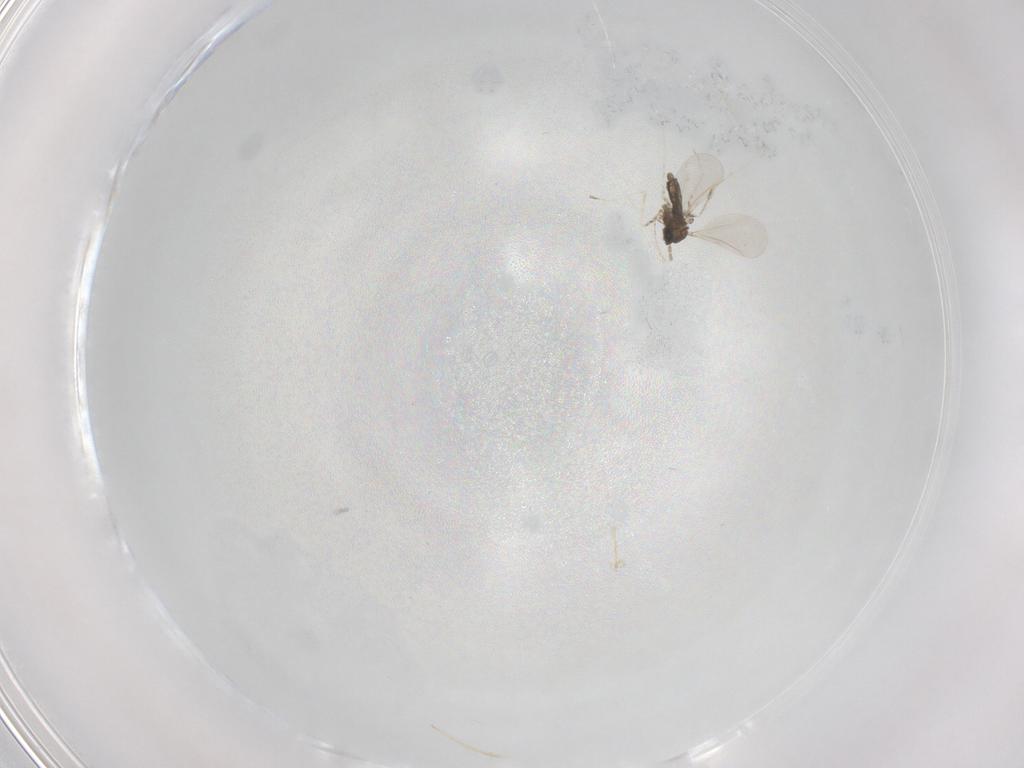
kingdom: Animalia
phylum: Arthropoda
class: Insecta
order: Diptera
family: Cecidomyiidae
